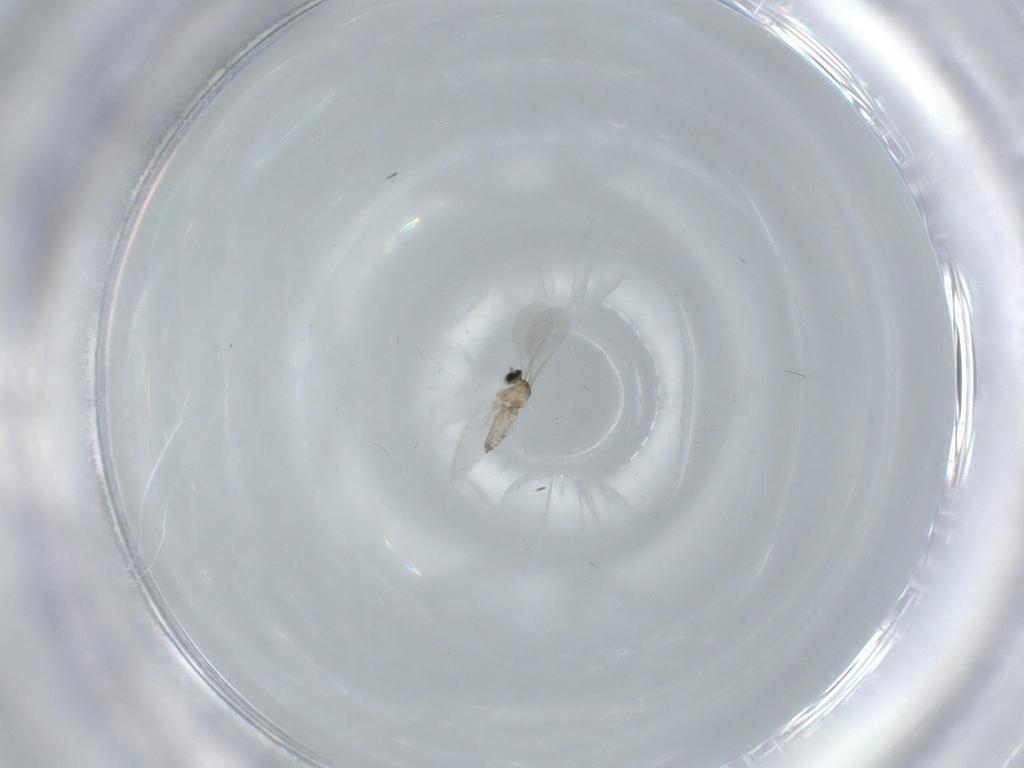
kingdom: Animalia
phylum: Arthropoda
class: Insecta
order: Diptera
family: Cecidomyiidae
